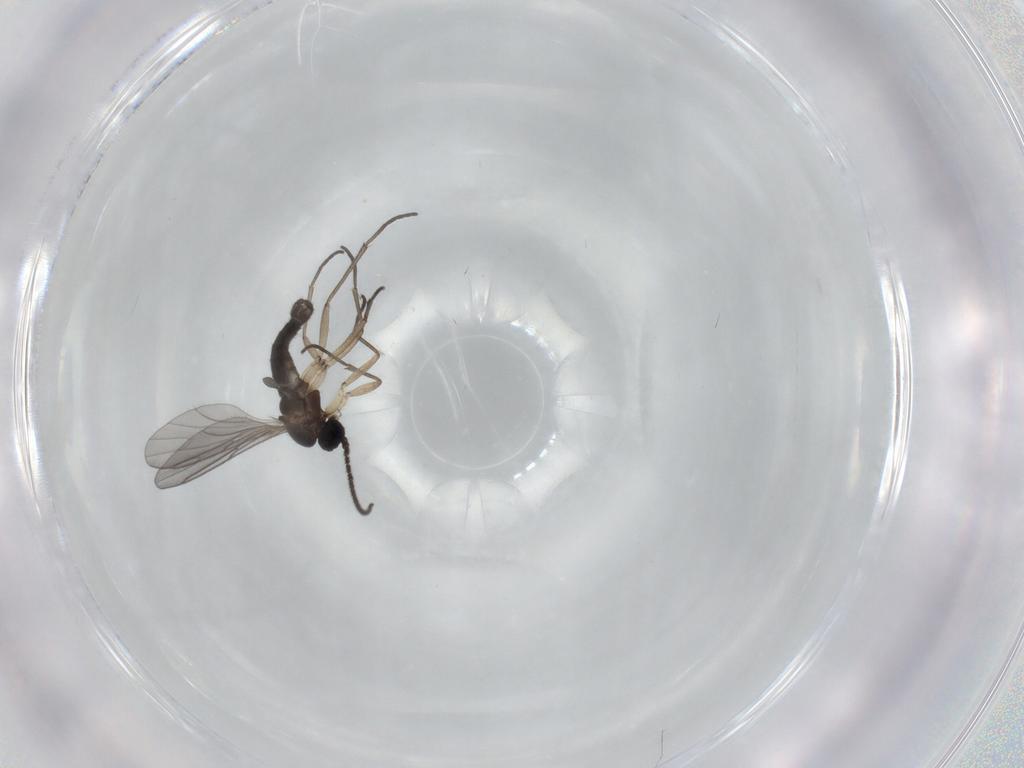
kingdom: Animalia
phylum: Arthropoda
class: Insecta
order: Diptera
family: Sciaridae
